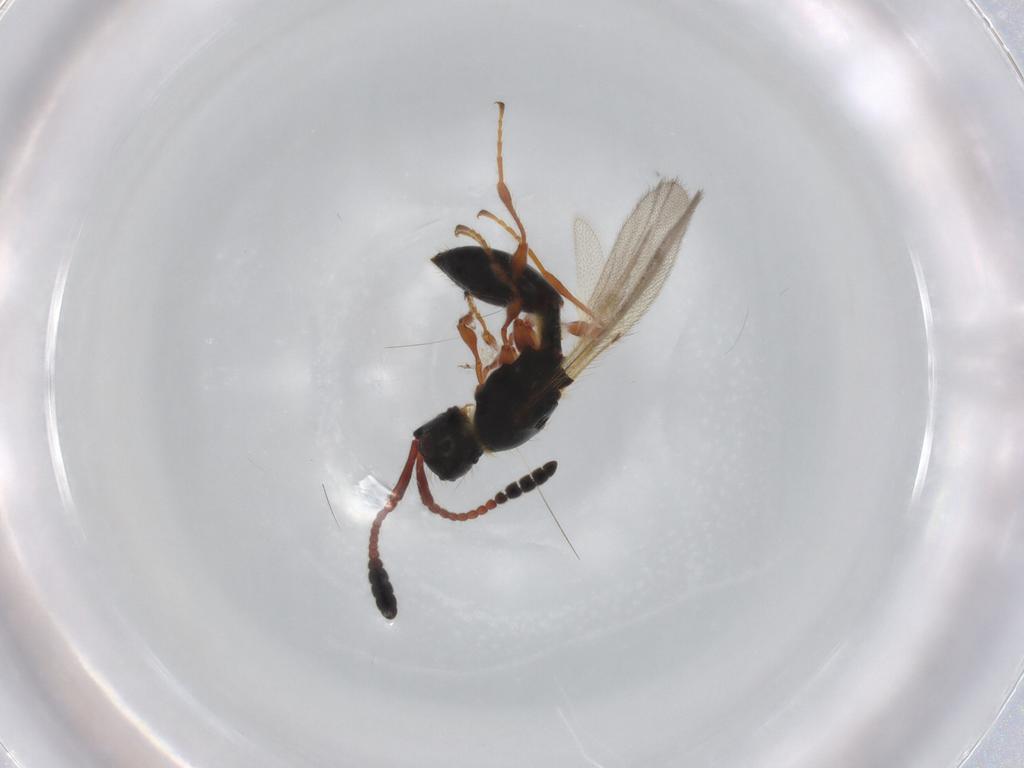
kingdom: Animalia
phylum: Arthropoda
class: Insecta
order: Hymenoptera
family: Diapriidae
